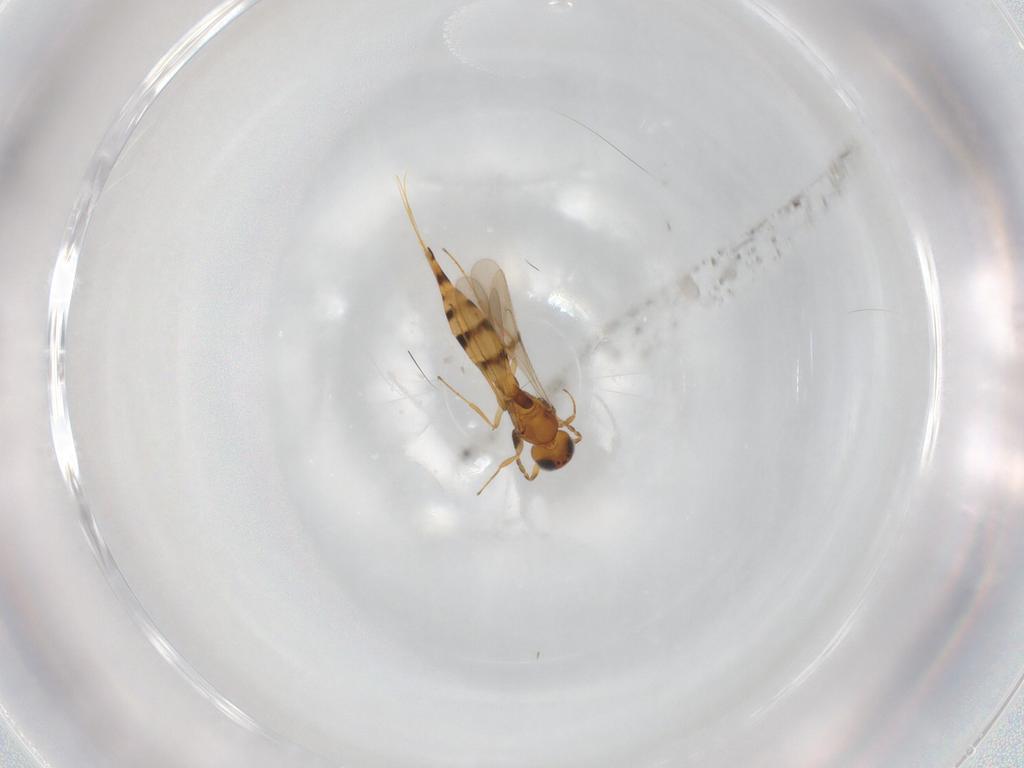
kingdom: Animalia
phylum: Arthropoda
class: Insecta
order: Hymenoptera
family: Scelionidae
